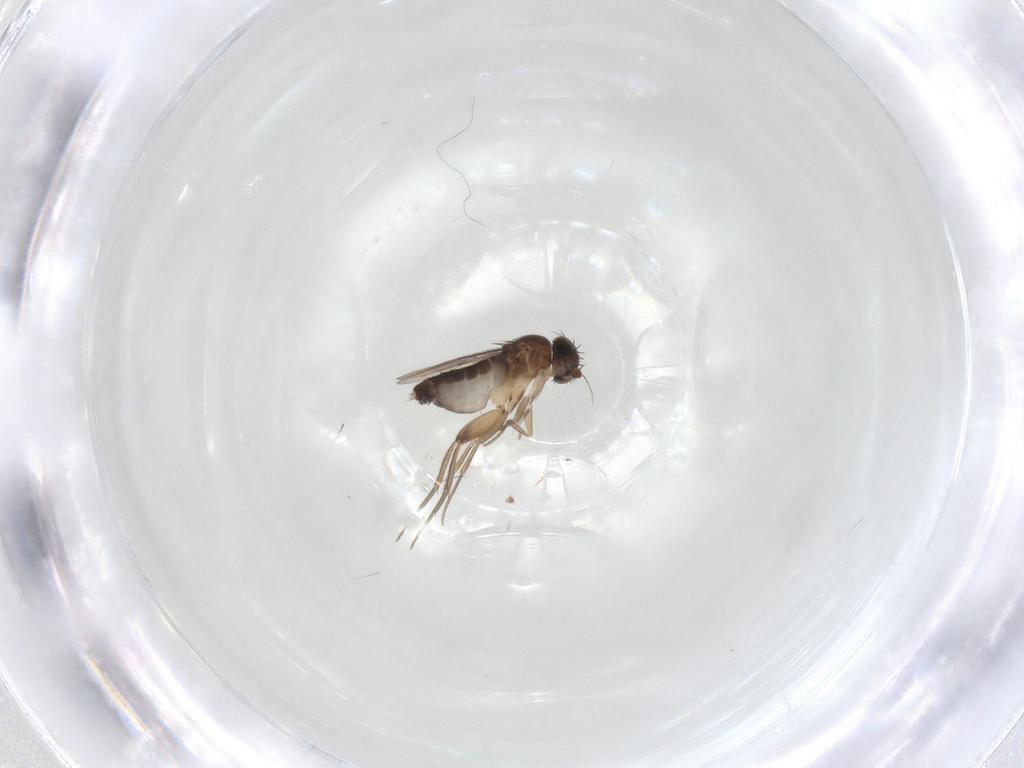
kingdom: Animalia
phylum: Arthropoda
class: Insecta
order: Diptera
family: Phoridae
